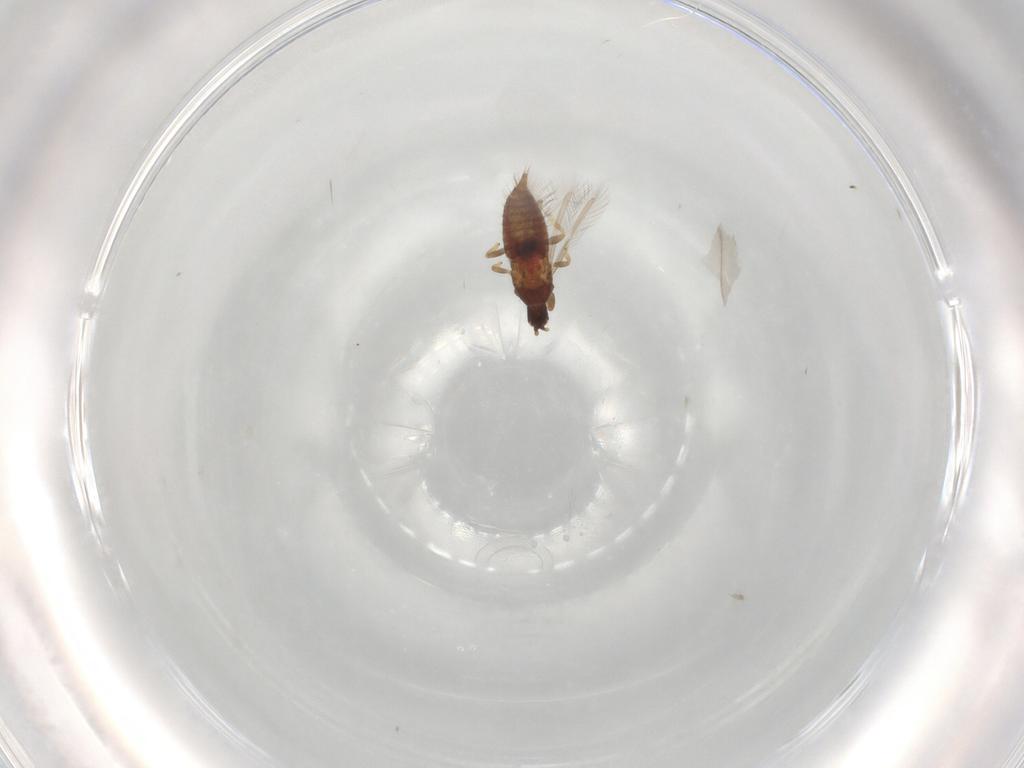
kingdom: Animalia
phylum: Arthropoda
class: Insecta
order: Thysanoptera
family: Phlaeothripidae
